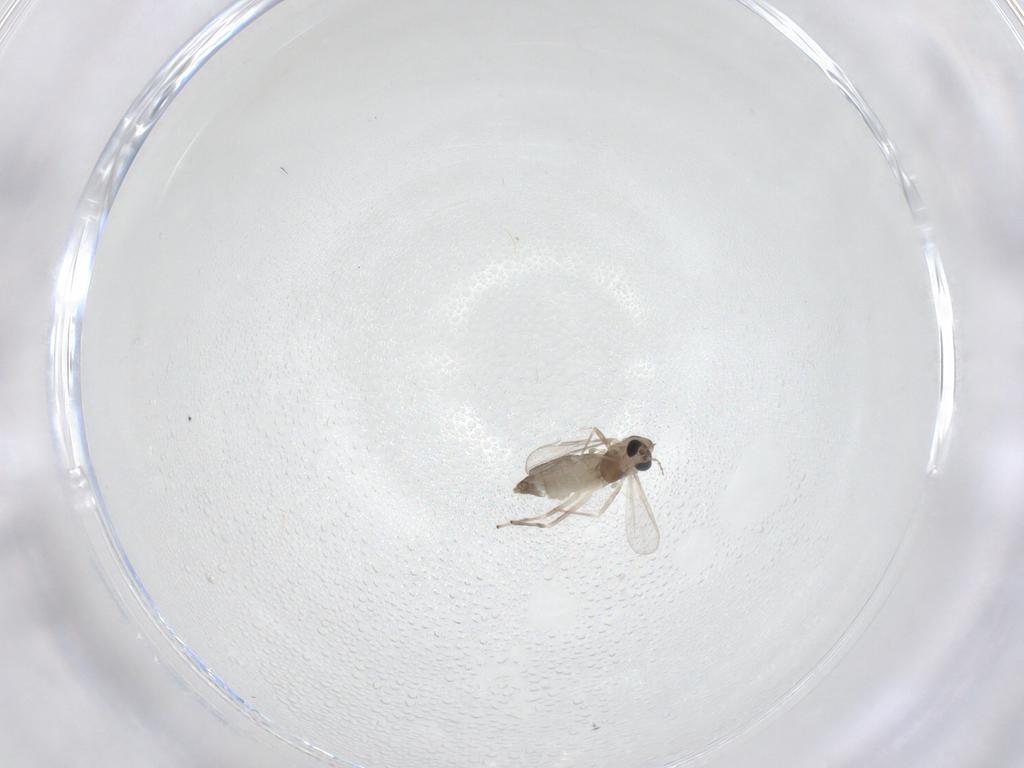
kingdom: Animalia
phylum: Arthropoda
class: Insecta
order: Diptera
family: Chironomidae
